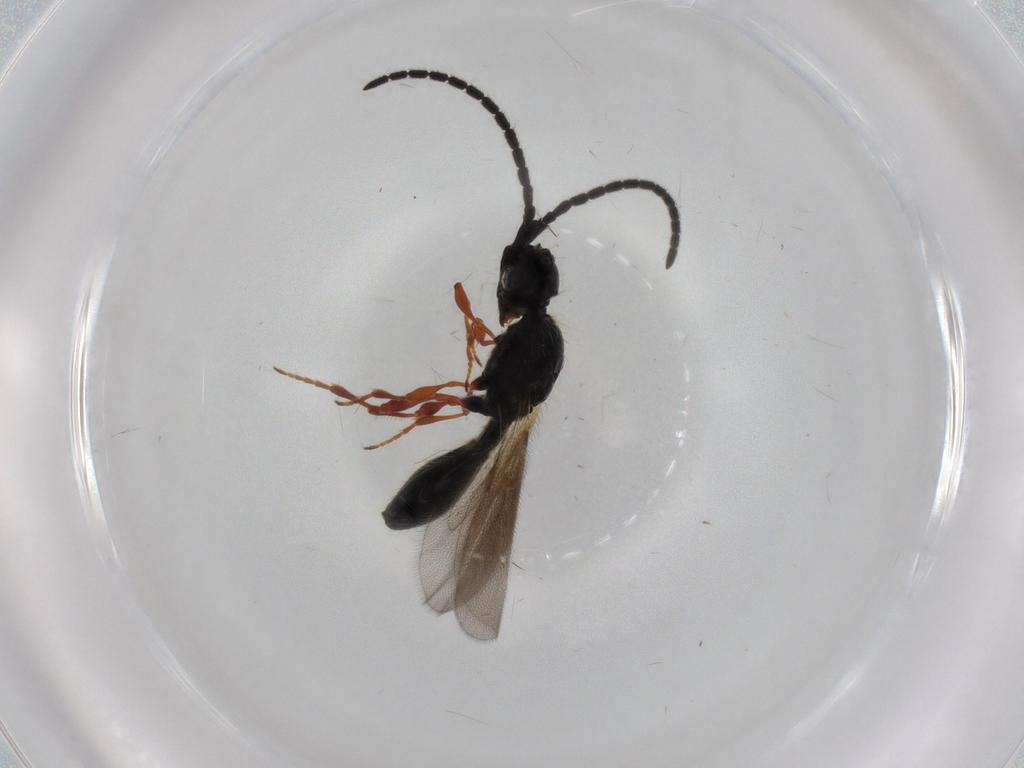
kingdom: Animalia
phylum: Arthropoda
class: Insecta
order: Hymenoptera
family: Diapriidae
